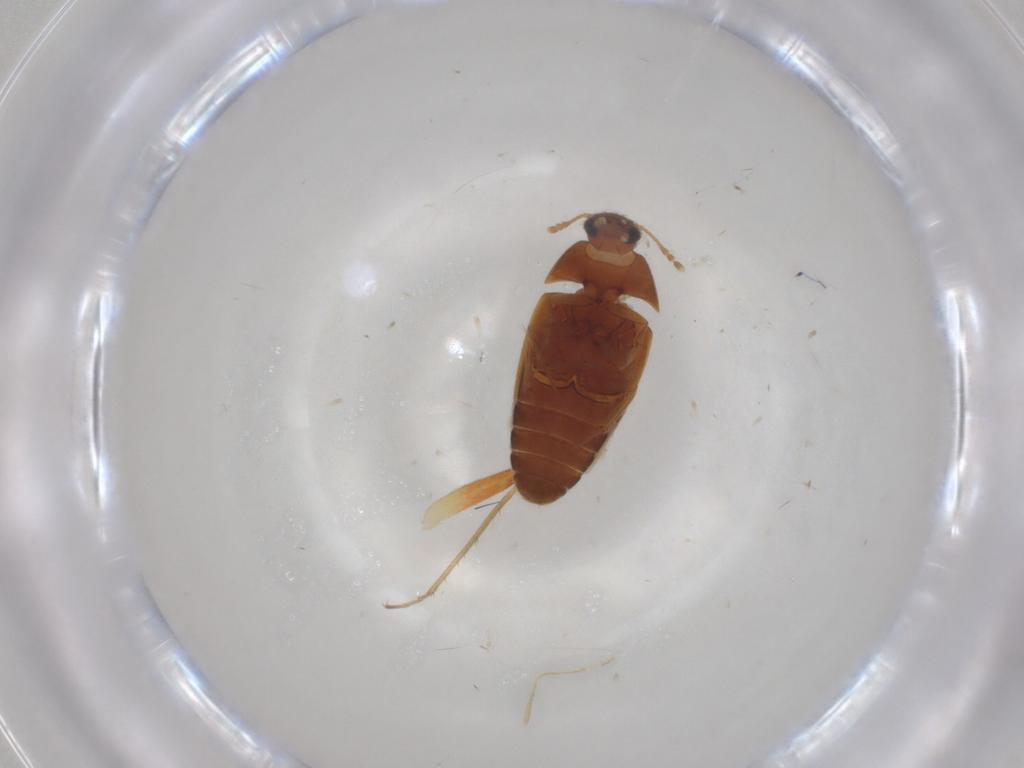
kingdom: Animalia
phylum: Arthropoda
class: Insecta
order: Coleoptera
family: Mycetophagidae
